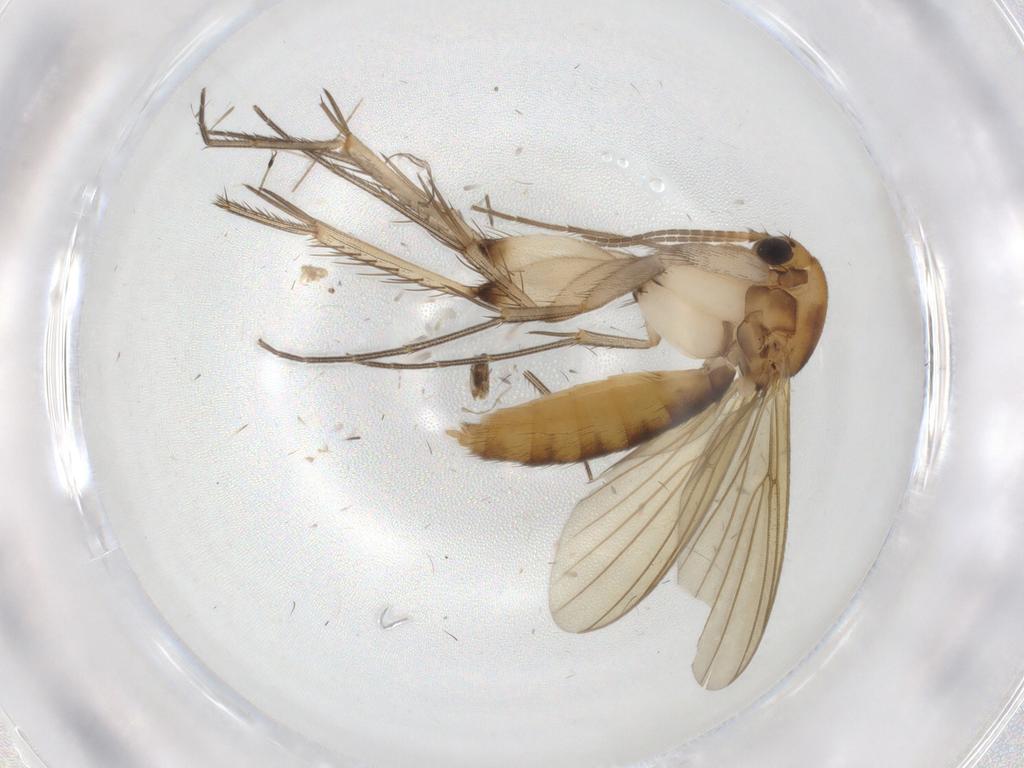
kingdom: Animalia
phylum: Arthropoda
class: Insecta
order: Diptera
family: Chironomidae
